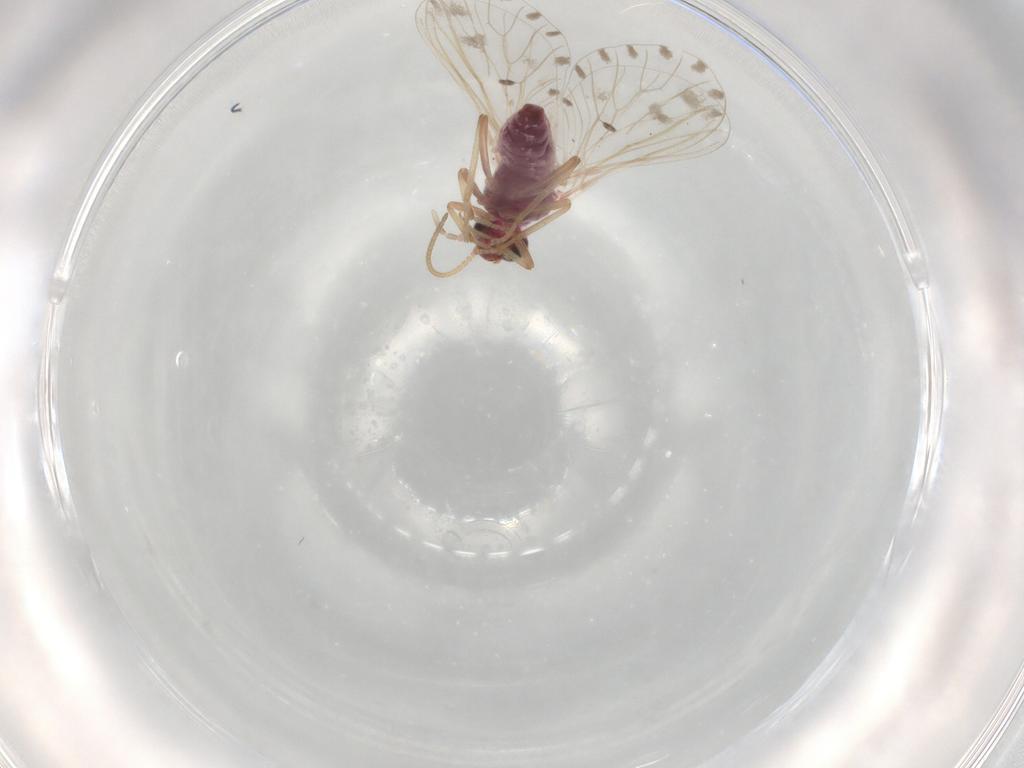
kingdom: Animalia
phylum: Arthropoda
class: Insecta
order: Neuroptera
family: Coniopterygidae
